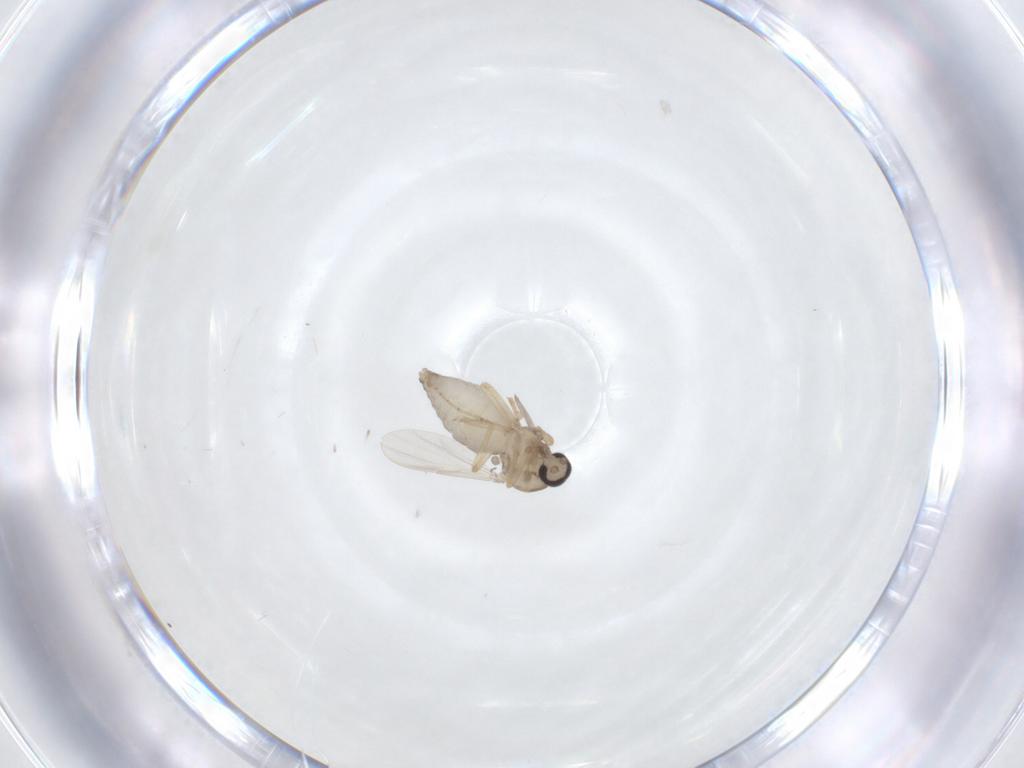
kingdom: Animalia
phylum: Arthropoda
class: Insecta
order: Diptera
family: Ceratopogonidae
